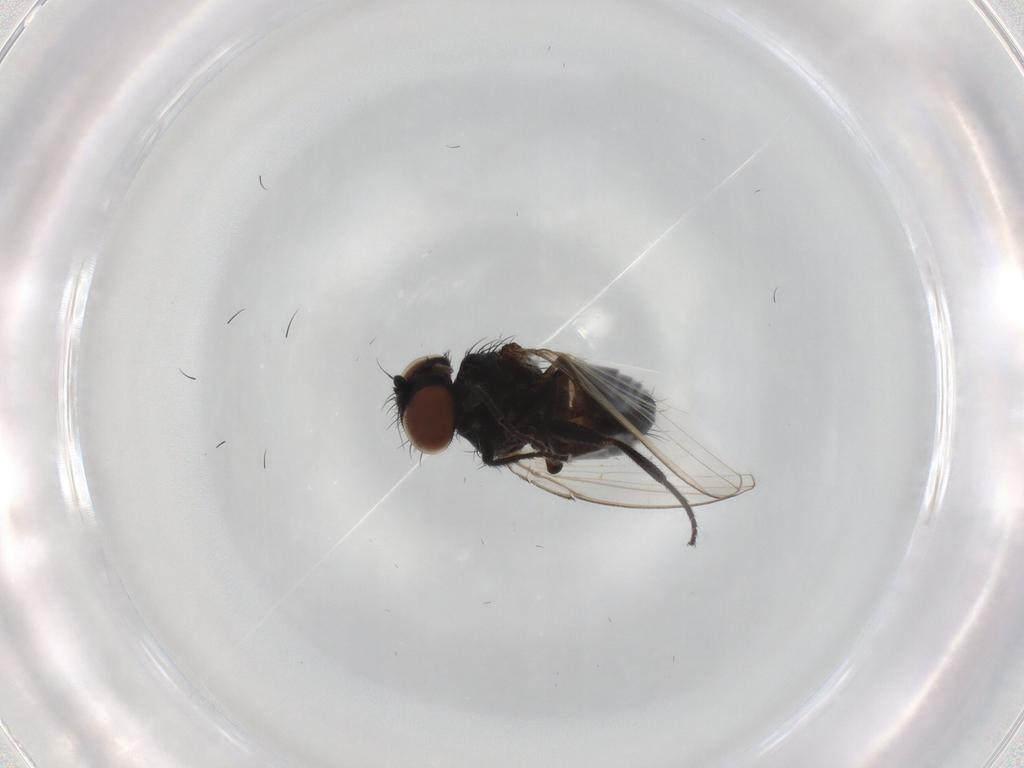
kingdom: Animalia
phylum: Arthropoda
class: Insecta
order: Diptera
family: Milichiidae
